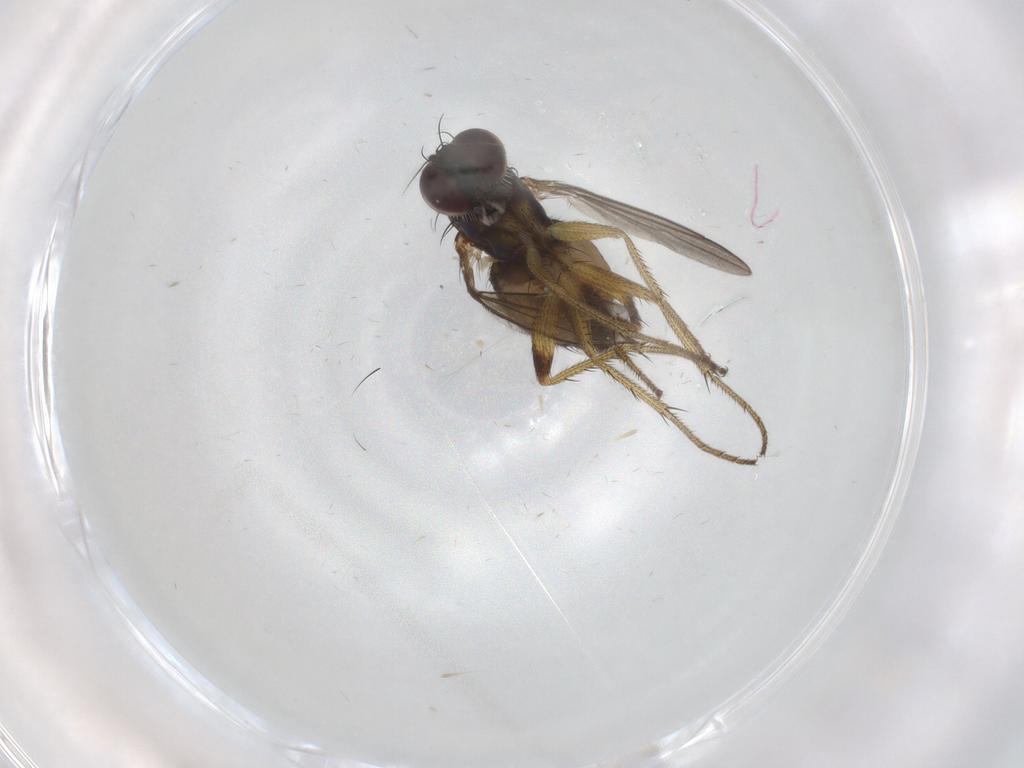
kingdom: Animalia
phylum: Arthropoda
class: Insecta
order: Diptera
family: Dolichopodidae
